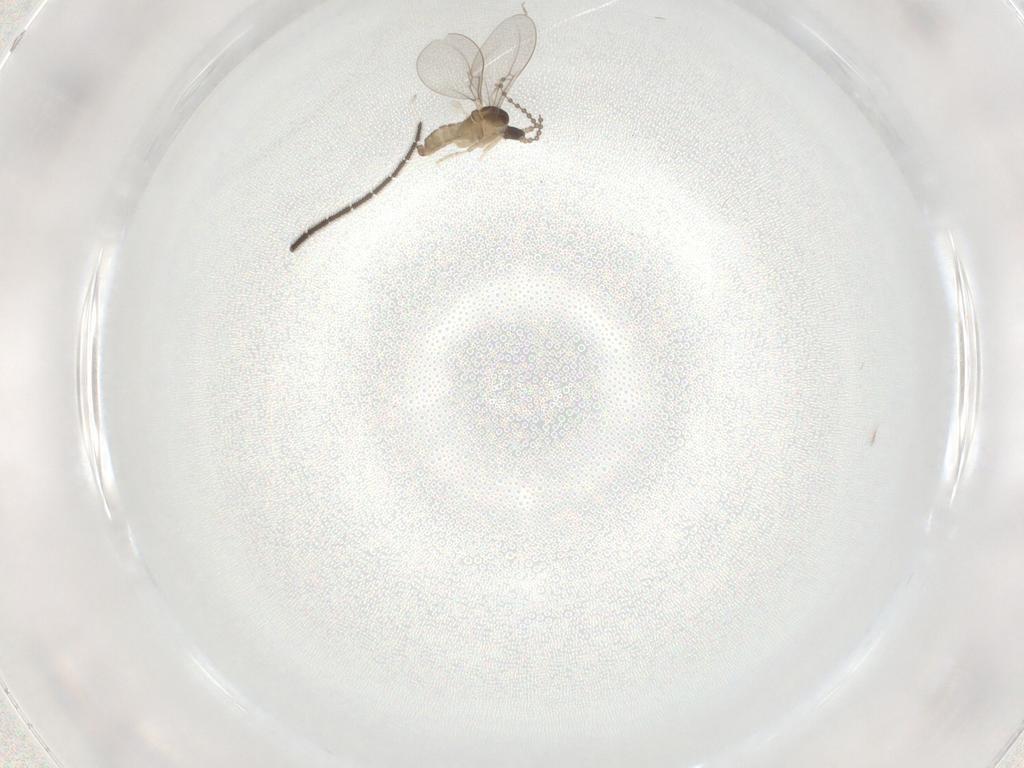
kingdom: Animalia
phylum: Arthropoda
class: Insecta
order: Diptera
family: Cecidomyiidae
